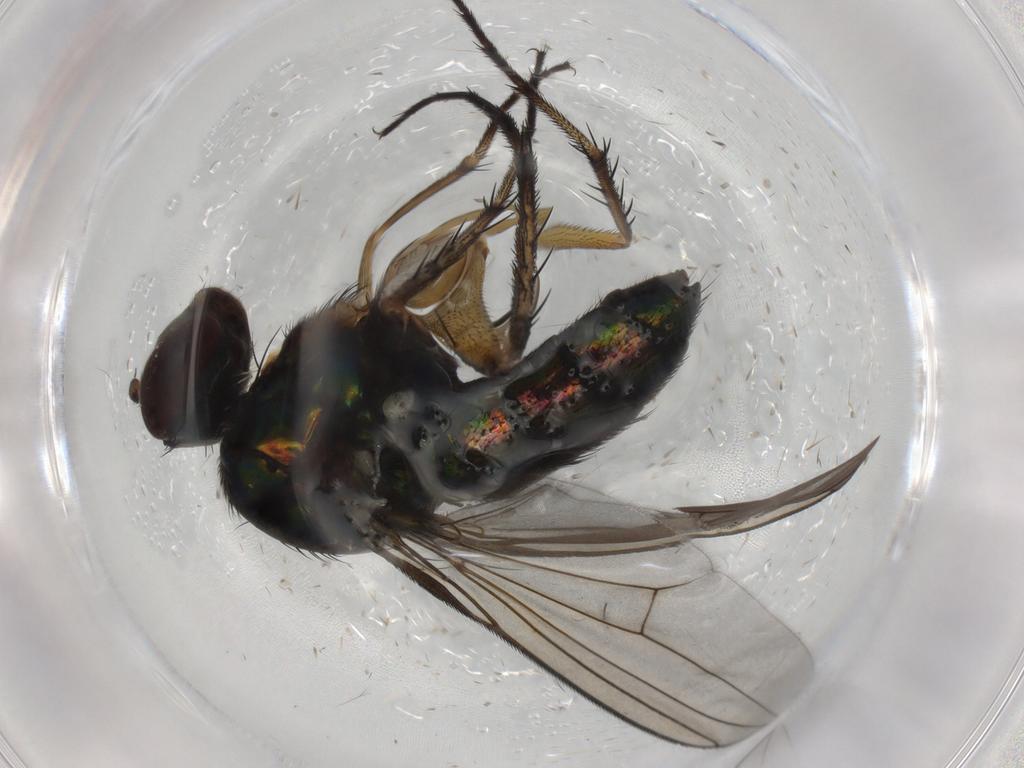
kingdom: Animalia
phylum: Arthropoda
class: Insecta
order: Diptera
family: Dolichopodidae
